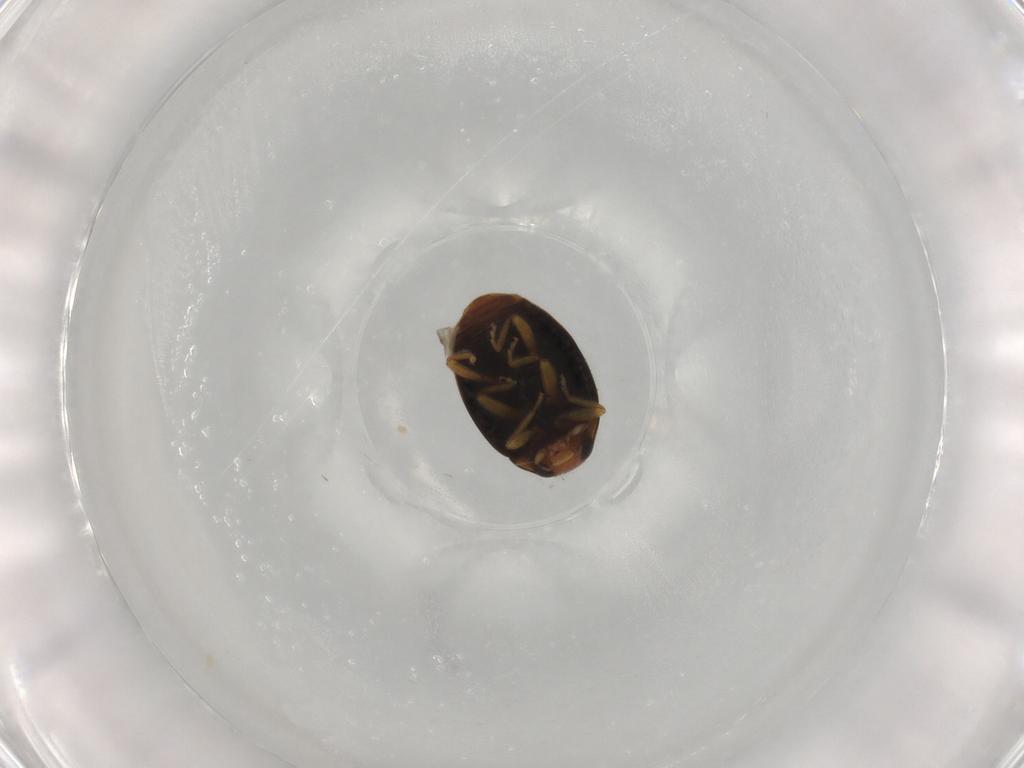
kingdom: Animalia
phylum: Arthropoda
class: Insecta
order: Coleoptera
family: Coccinellidae
